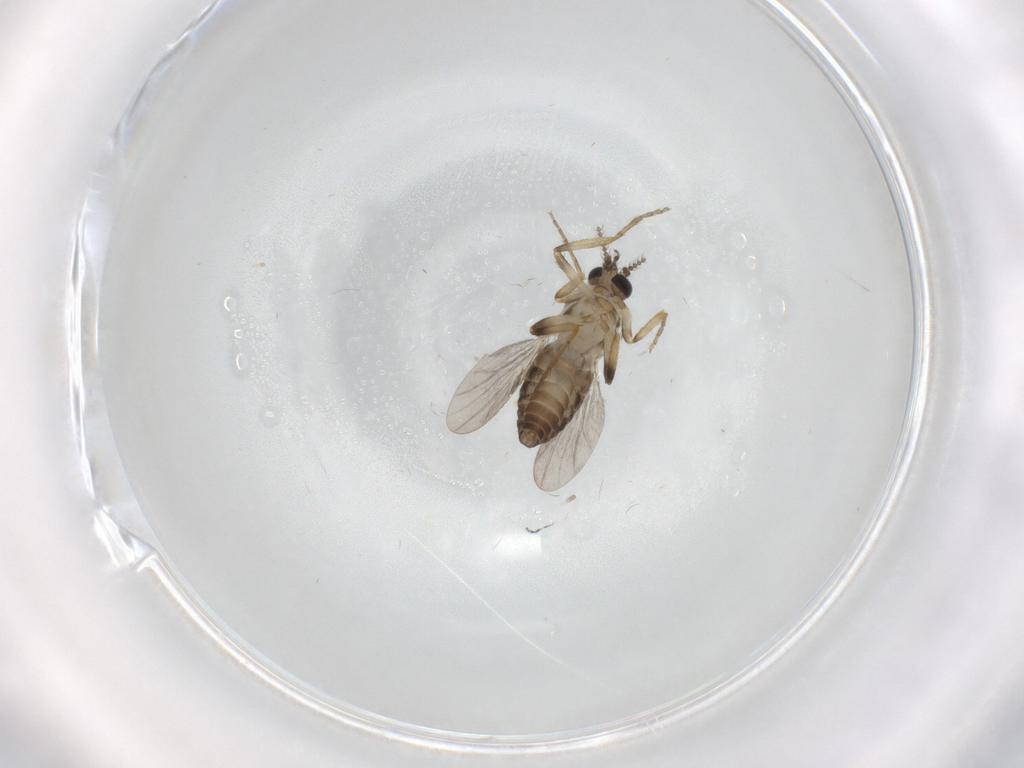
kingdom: Animalia
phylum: Arthropoda
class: Insecta
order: Diptera
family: Ceratopogonidae
